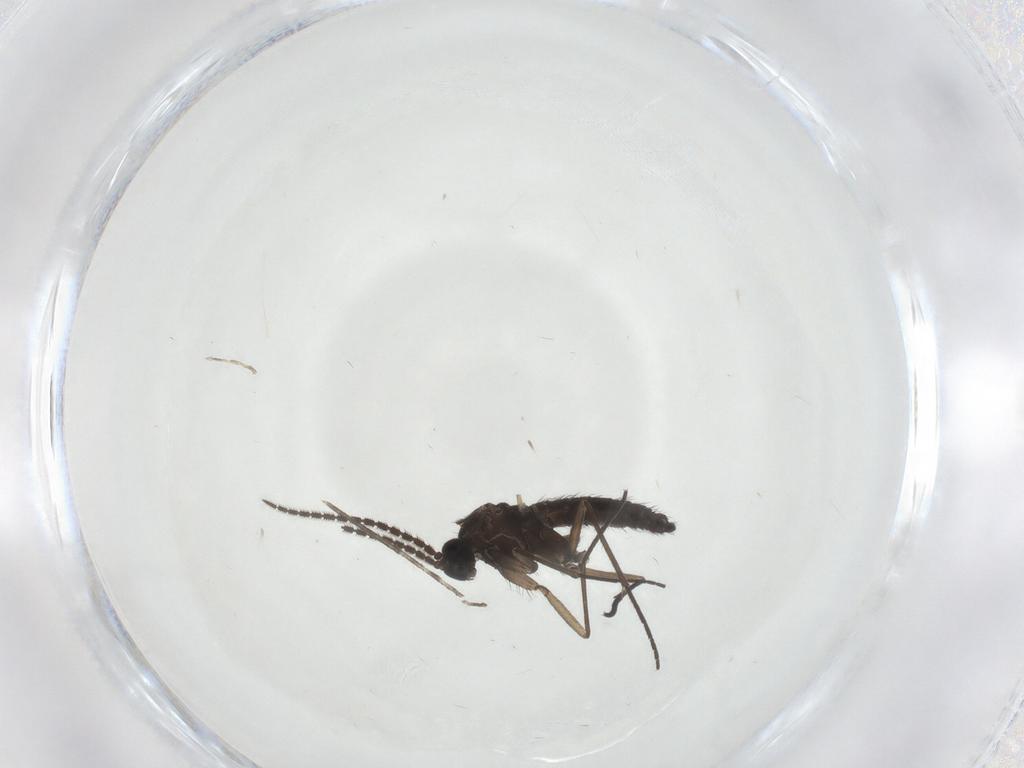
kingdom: Animalia
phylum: Arthropoda
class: Insecta
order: Diptera
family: Sciaridae
